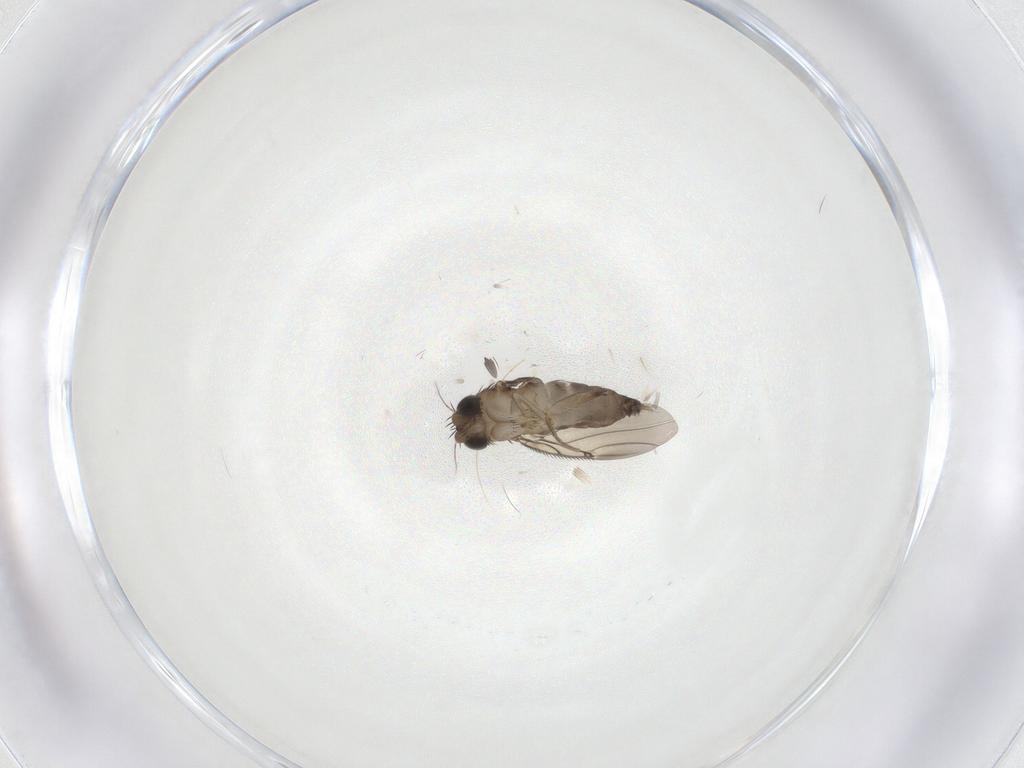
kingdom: Animalia
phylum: Arthropoda
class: Insecta
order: Diptera
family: Phoridae
